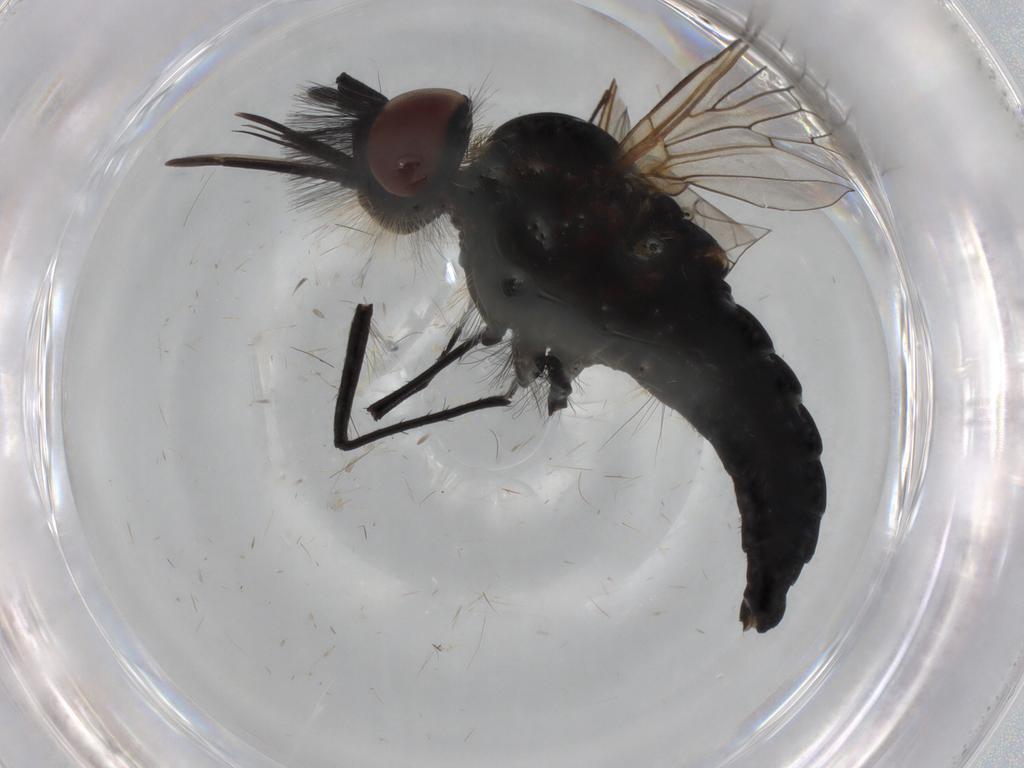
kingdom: Animalia
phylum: Arthropoda
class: Insecta
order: Diptera
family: Bombyliidae
